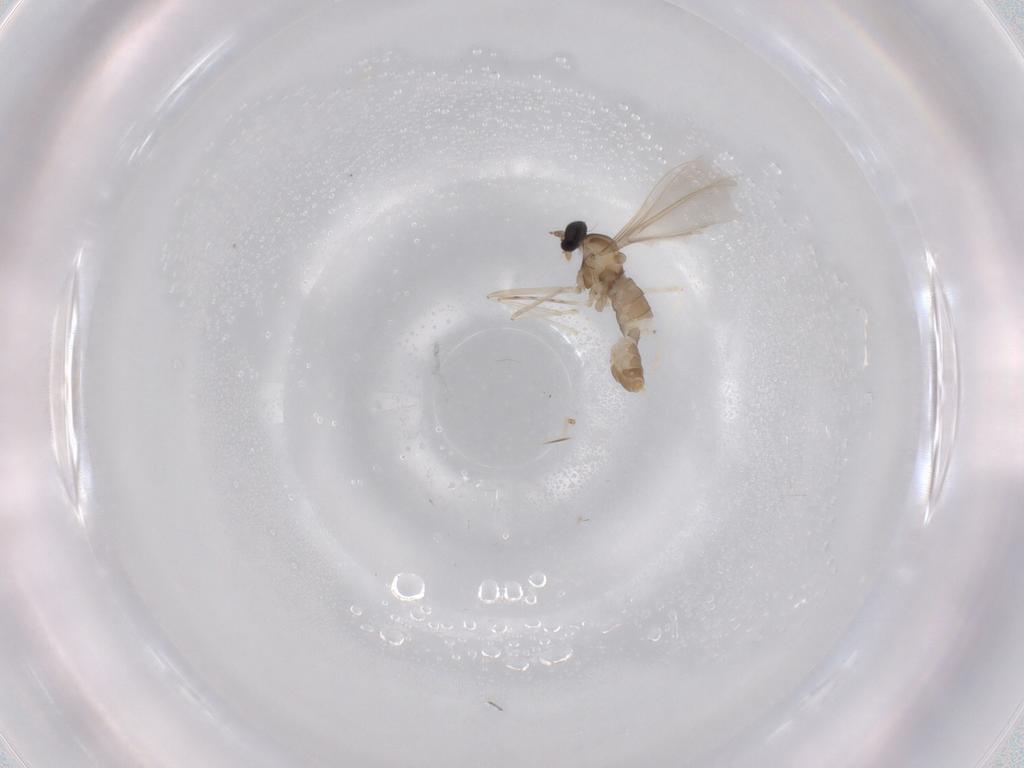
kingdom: Animalia
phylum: Arthropoda
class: Insecta
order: Diptera
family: Cecidomyiidae
